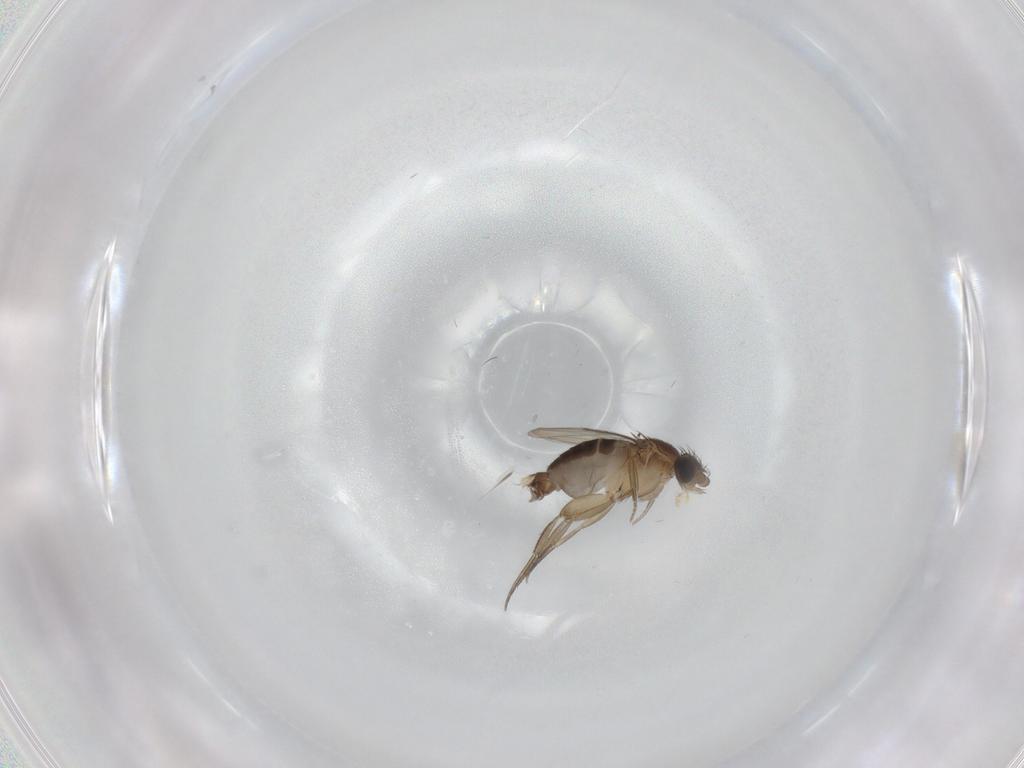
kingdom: Animalia
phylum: Arthropoda
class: Insecta
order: Diptera
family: Phoridae
